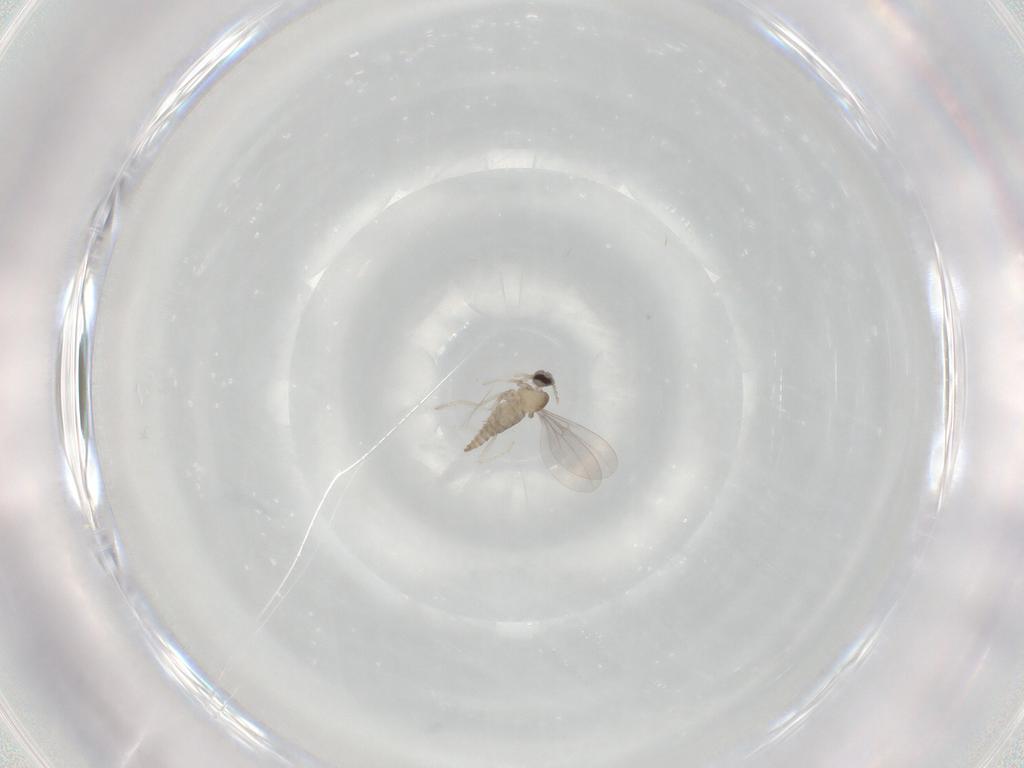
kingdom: Animalia
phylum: Arthropoda
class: Insecta
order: Diptera
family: Cecidomyiidae
